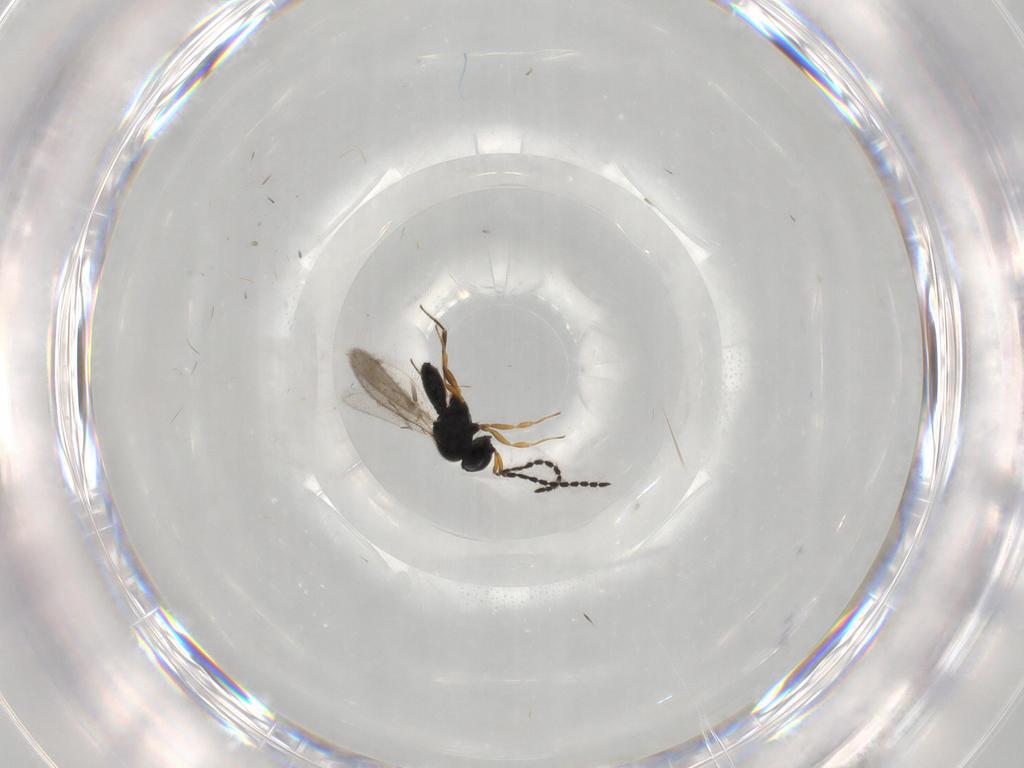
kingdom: Animalia
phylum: Arthropoda
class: Insecta
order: Hymenoptera
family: Scelionidae
